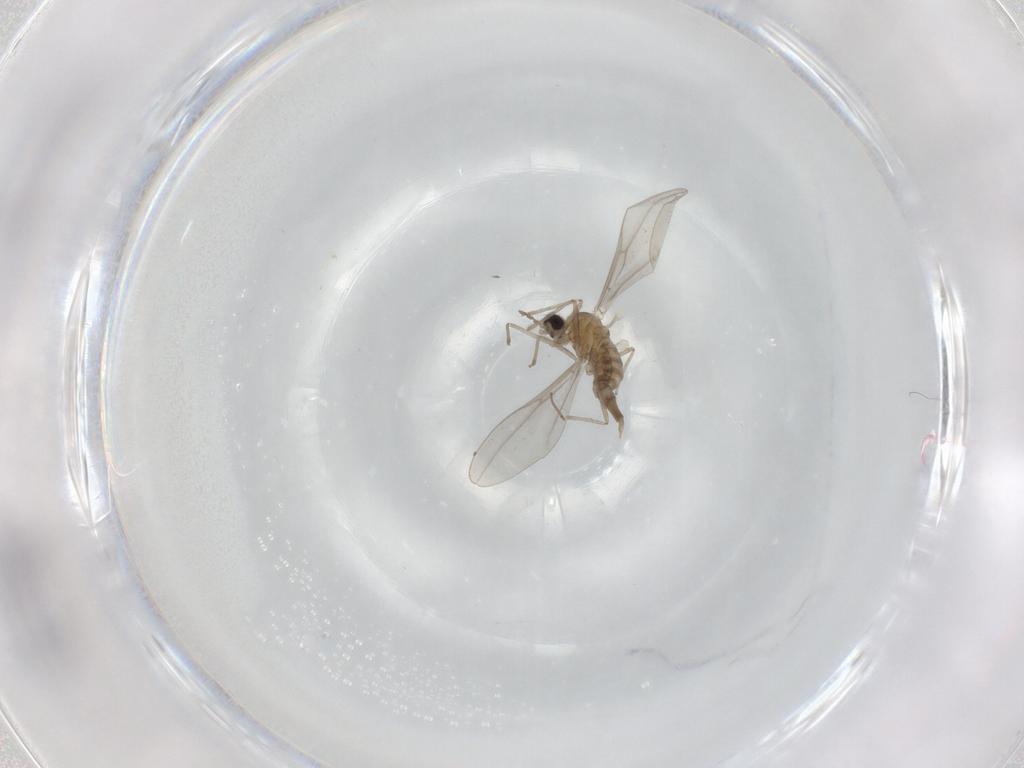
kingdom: Animalia
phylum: Arthropoda
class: Insecta
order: Diptera
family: Cecidomyiidae
